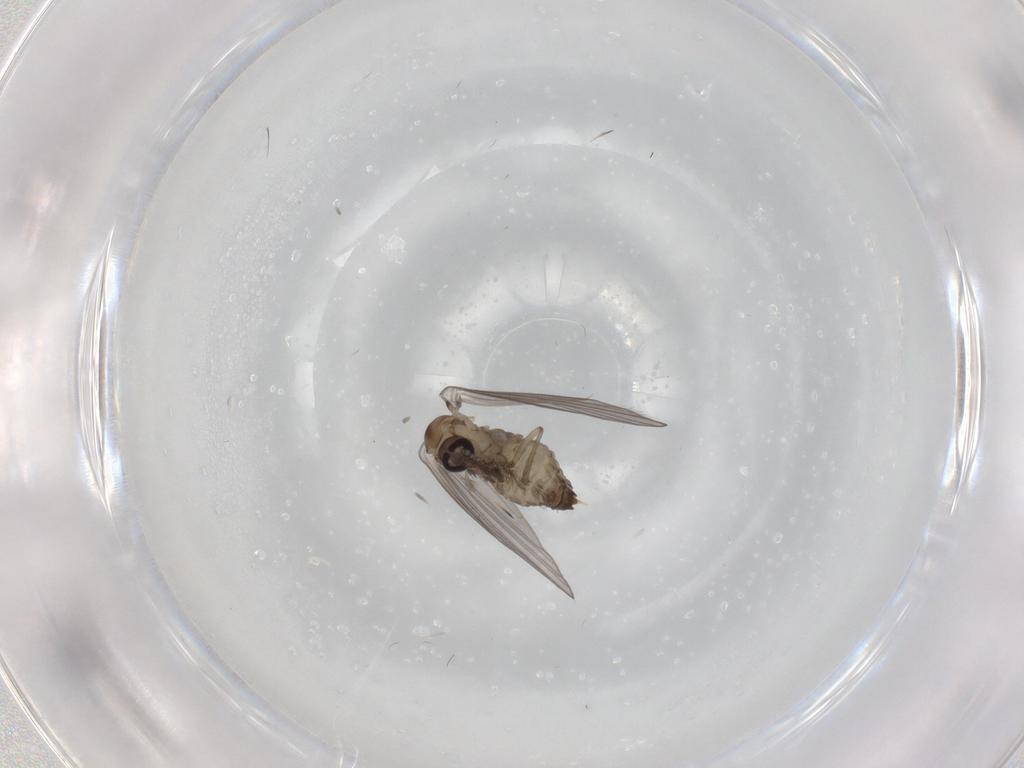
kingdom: Animalia
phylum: Arthropoda
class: Insecta
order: Diptera
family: Psychodidae
